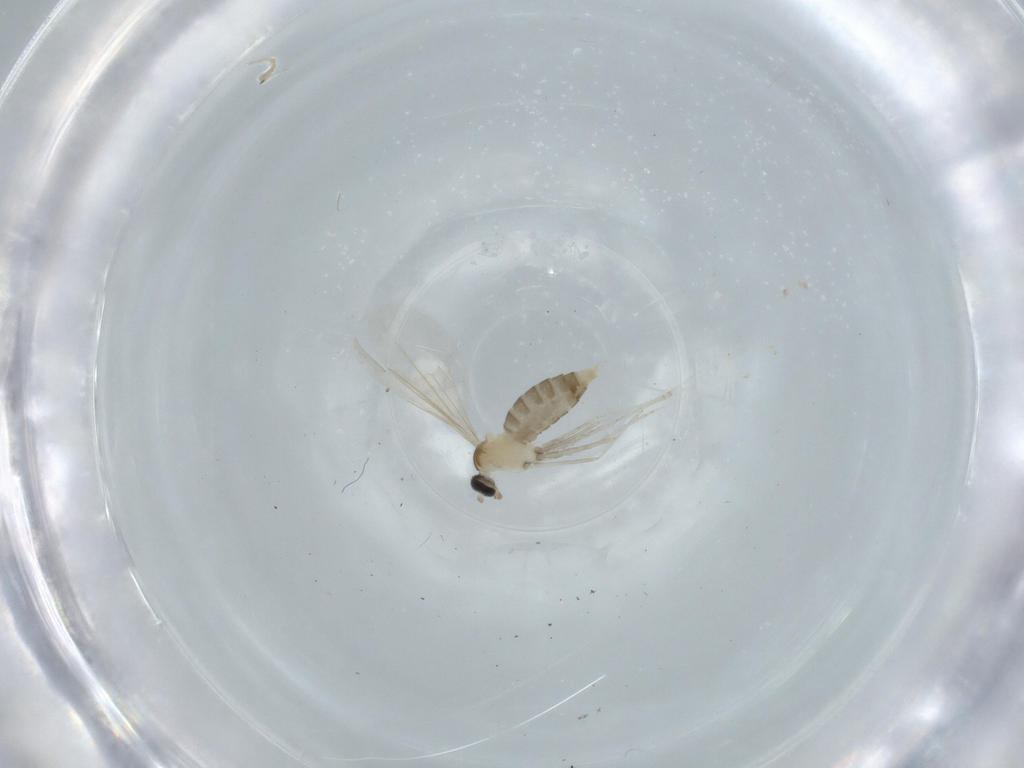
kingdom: Animalia
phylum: Arthropoda
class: Insecta
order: Diptera
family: Cecidomyiidae
